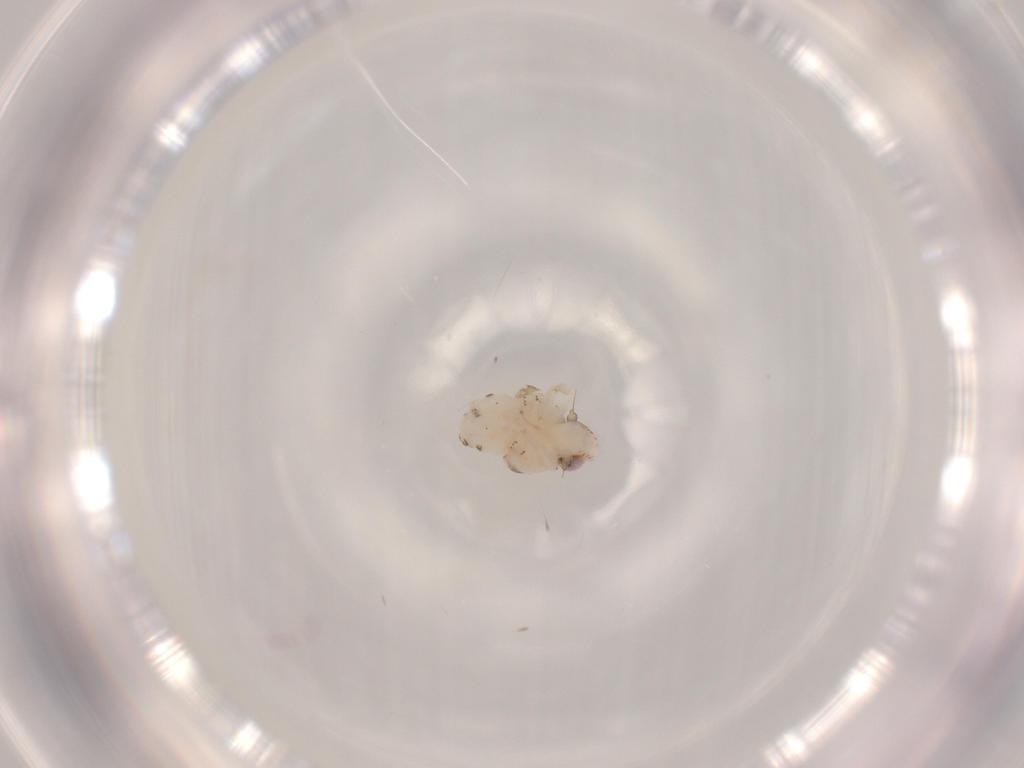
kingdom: Animalia
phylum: Arthropoda
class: Insecta
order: Hemiptera
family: Nogodinidae
